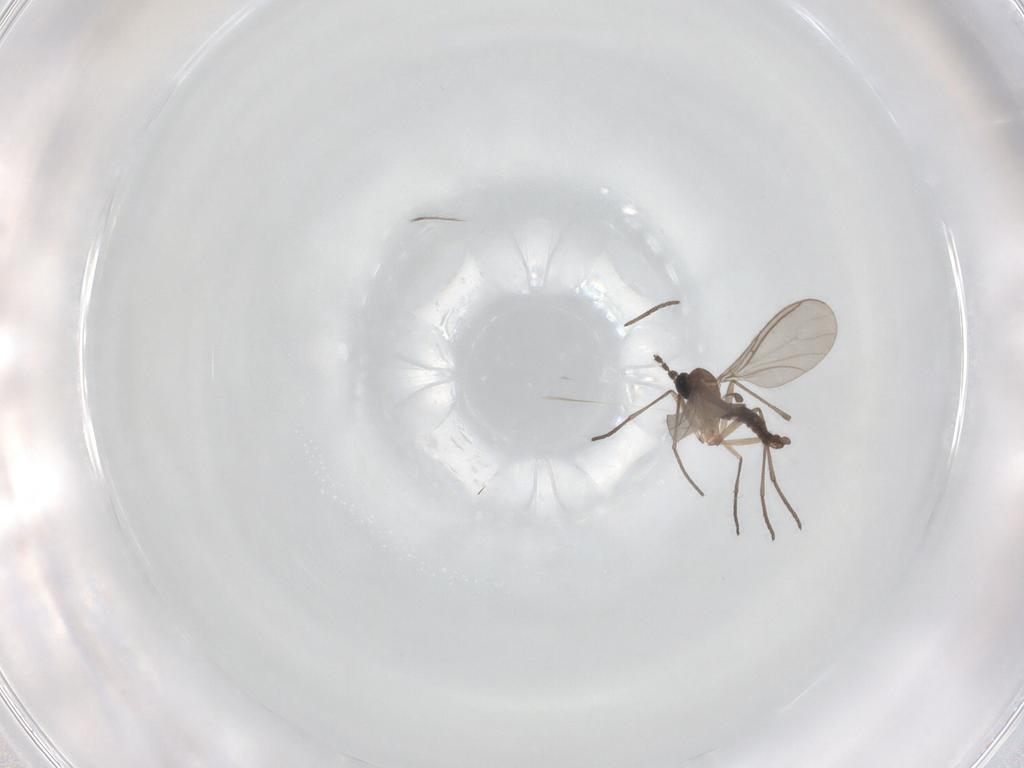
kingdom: Animalia
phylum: Arthropoda
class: Insecta
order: Diptera
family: Sciaridae
